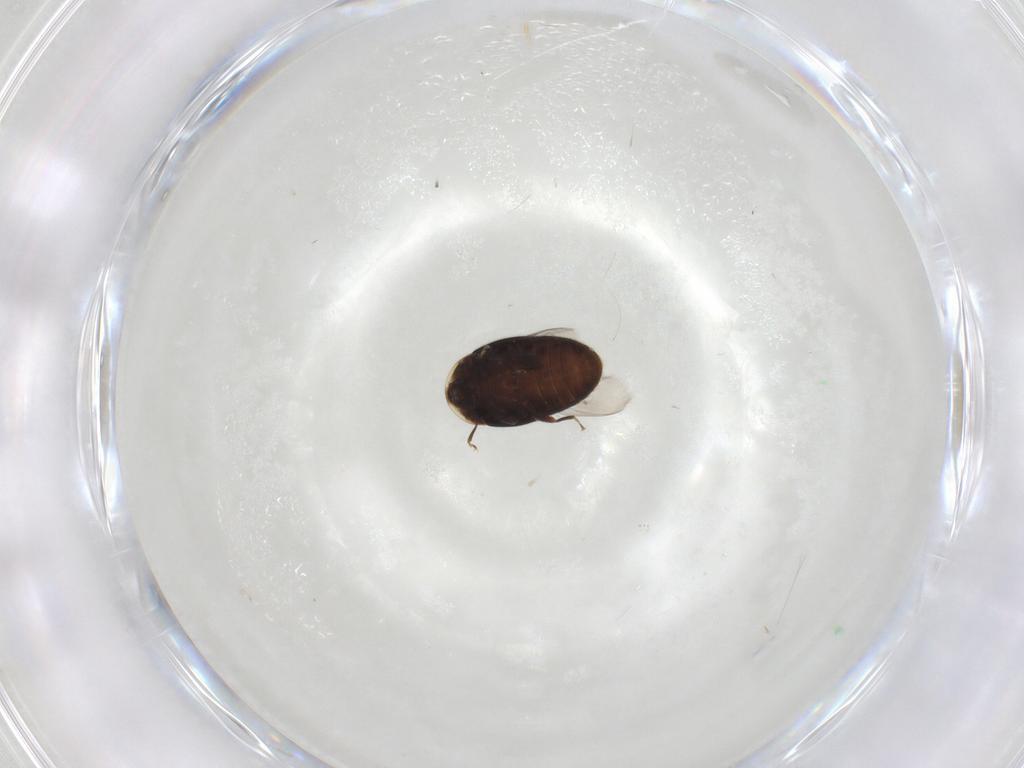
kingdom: Animalia
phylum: Arthropoda
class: Insecta
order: Coleoptera
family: Corylophidae
